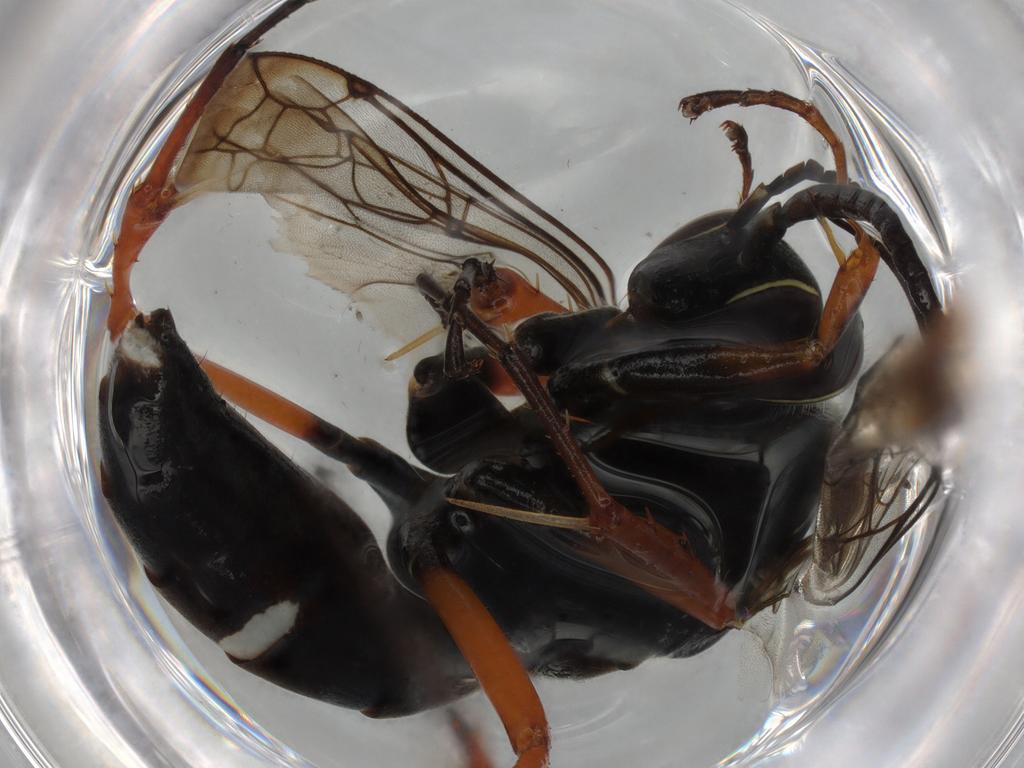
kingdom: Animalia
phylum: Arthropoda
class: Insecta
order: Hymenoptera
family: Pompilidae
